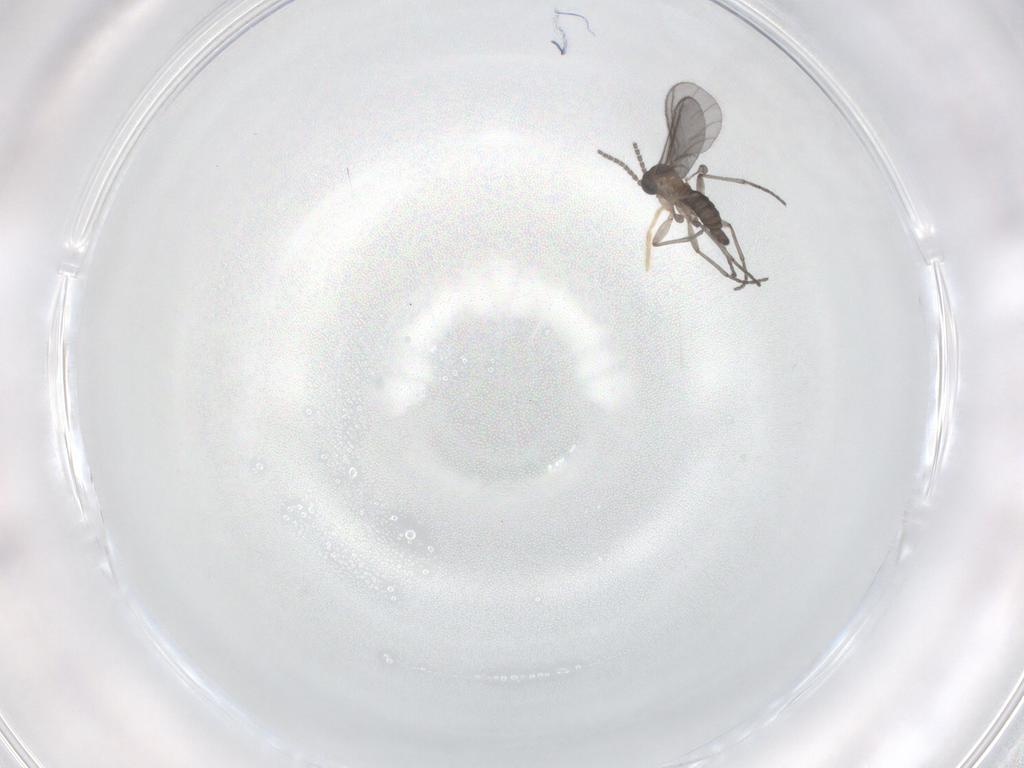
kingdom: Animalia
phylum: Arthropoda
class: Insecta
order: Diptera
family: Sciaridae
